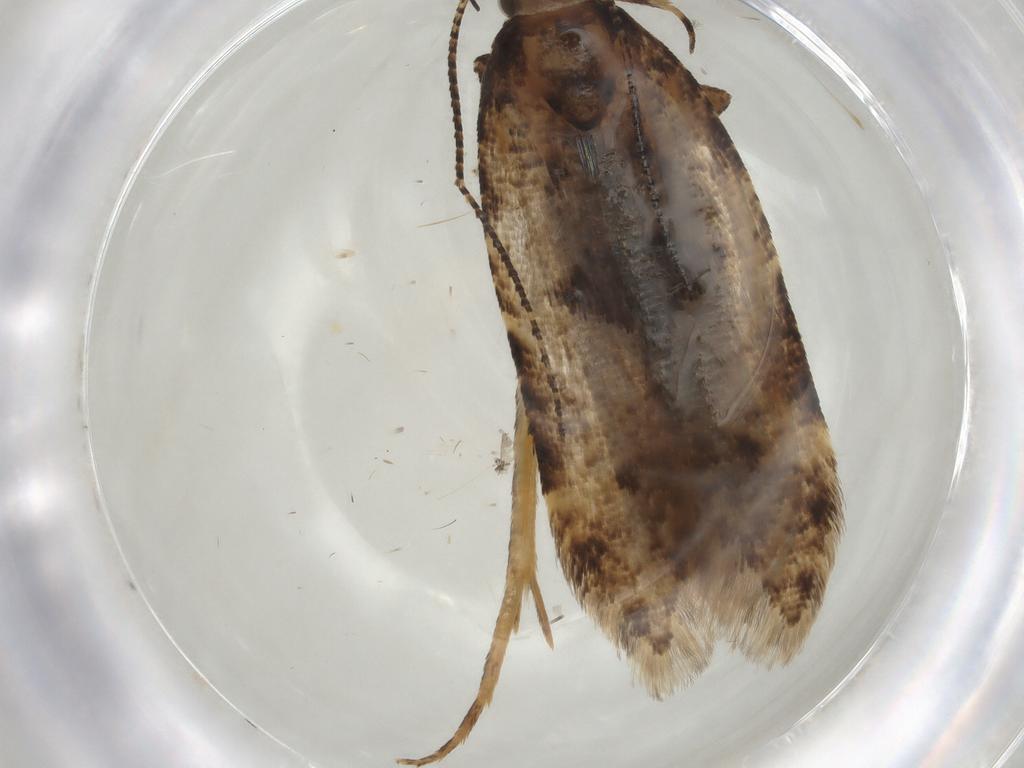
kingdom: Animalia
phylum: Arthropoda
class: Insecta
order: Lepidoptera
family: Gelechiidae
